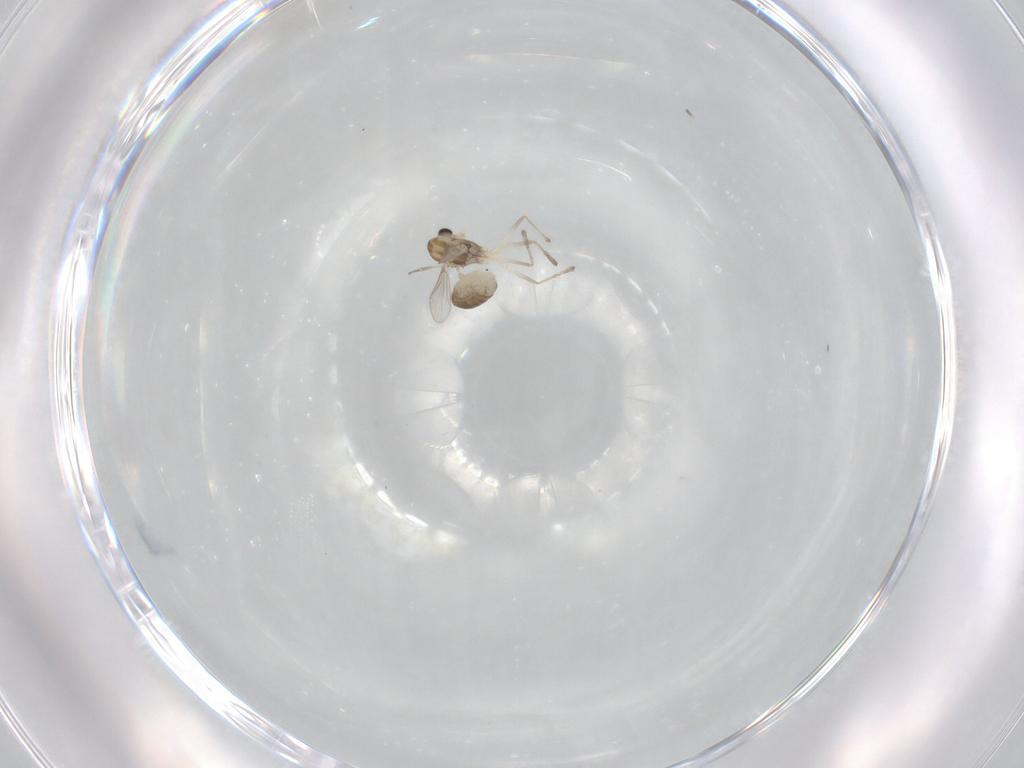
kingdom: Animalia
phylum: Arthropoda
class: Insecta
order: Diptera
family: Chironomidae
